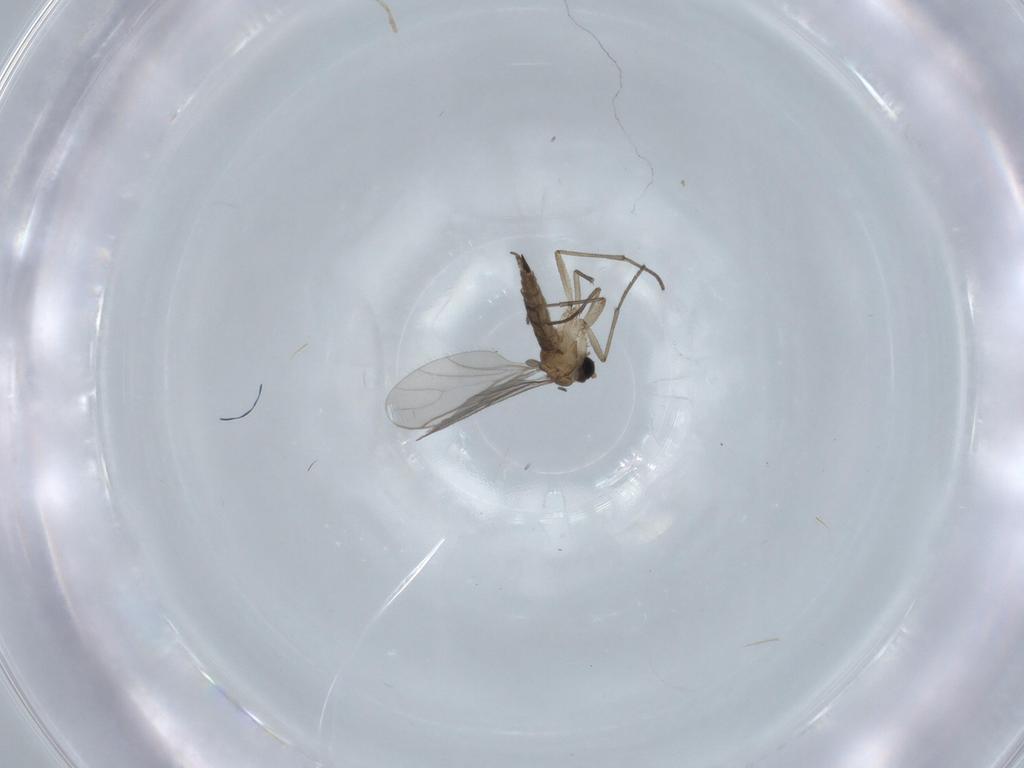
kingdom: Animalia
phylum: Arthropoda
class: Insecta
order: Diptera
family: Sciaridae
